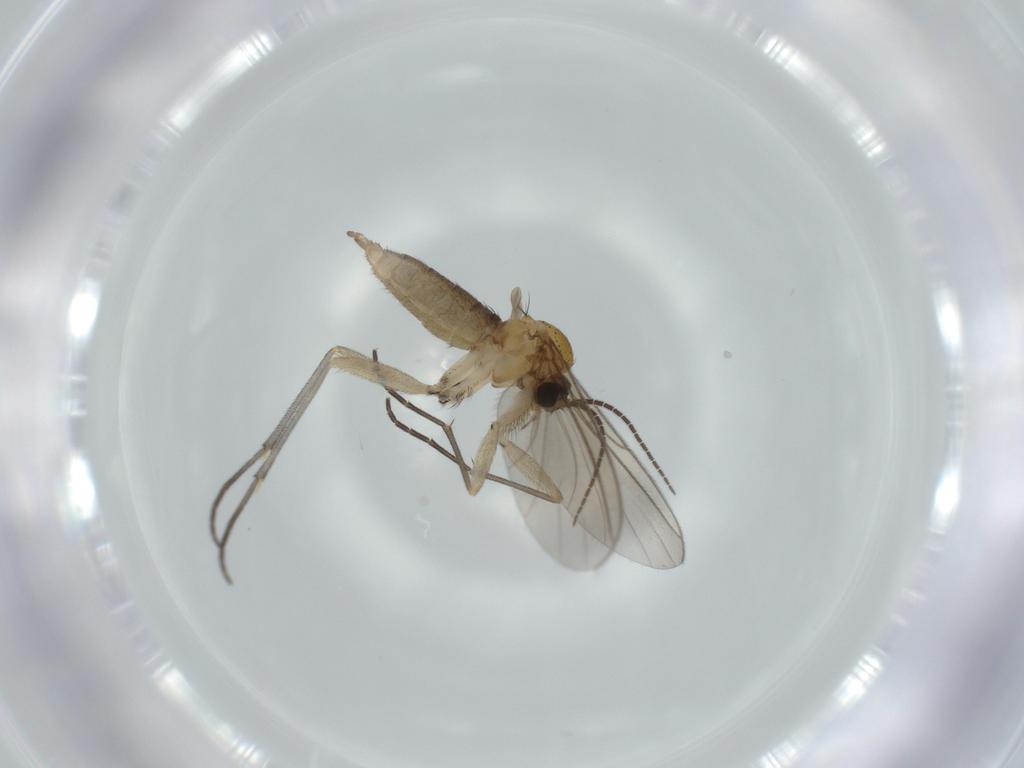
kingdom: Animalia
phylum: Arthropoda
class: Insecta
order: Diptera
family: Sciaridae
